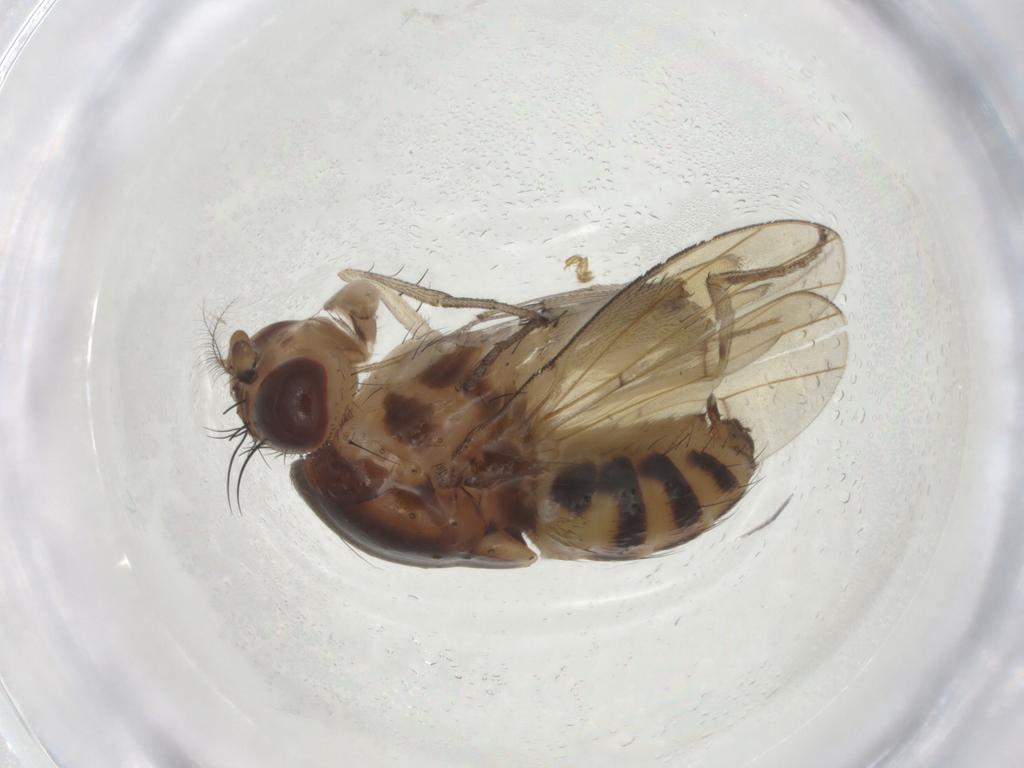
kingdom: Animalia
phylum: Arthropoda
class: Insecta
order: Diptera
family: Lauxaniidae
